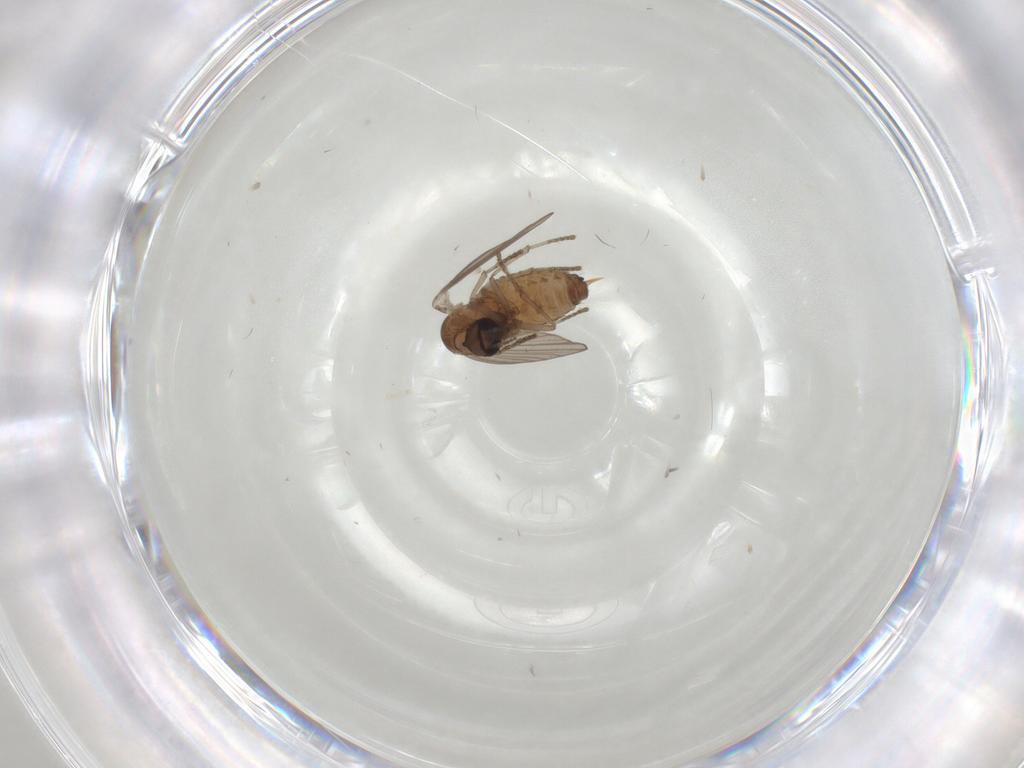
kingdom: Animalia
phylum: Arthropoda
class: Insecta
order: Diptera
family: Psychodidae
